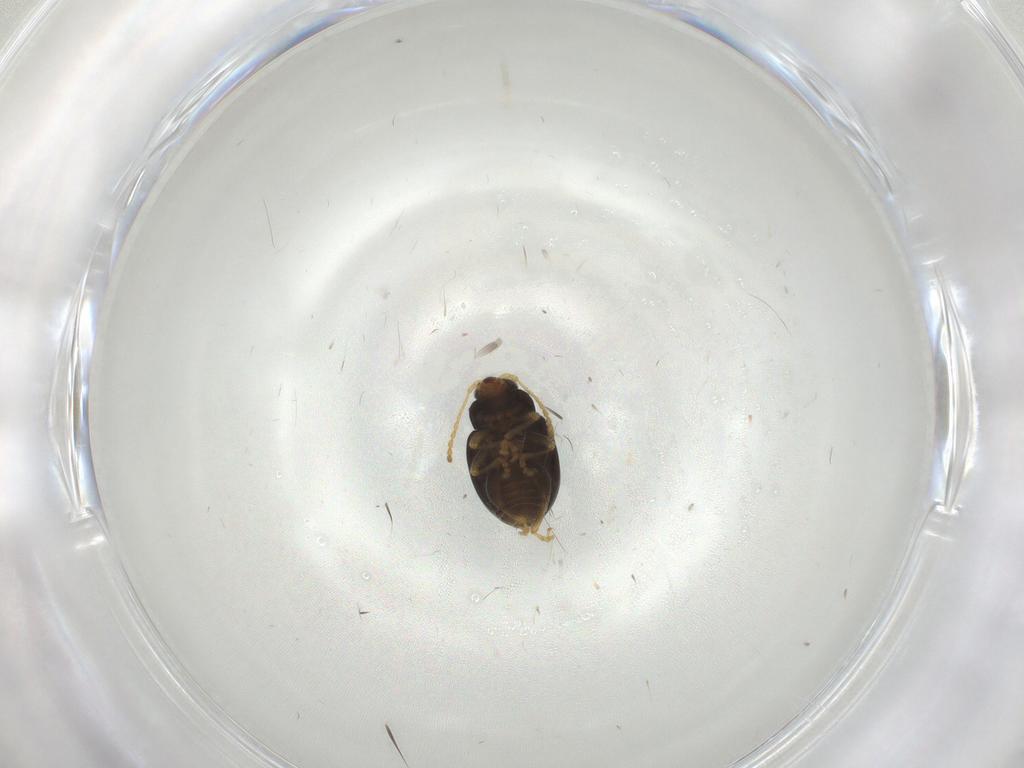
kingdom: Animalia
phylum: Arthropoda
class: Insecta
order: Coleoptera
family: Chrysomelidae
